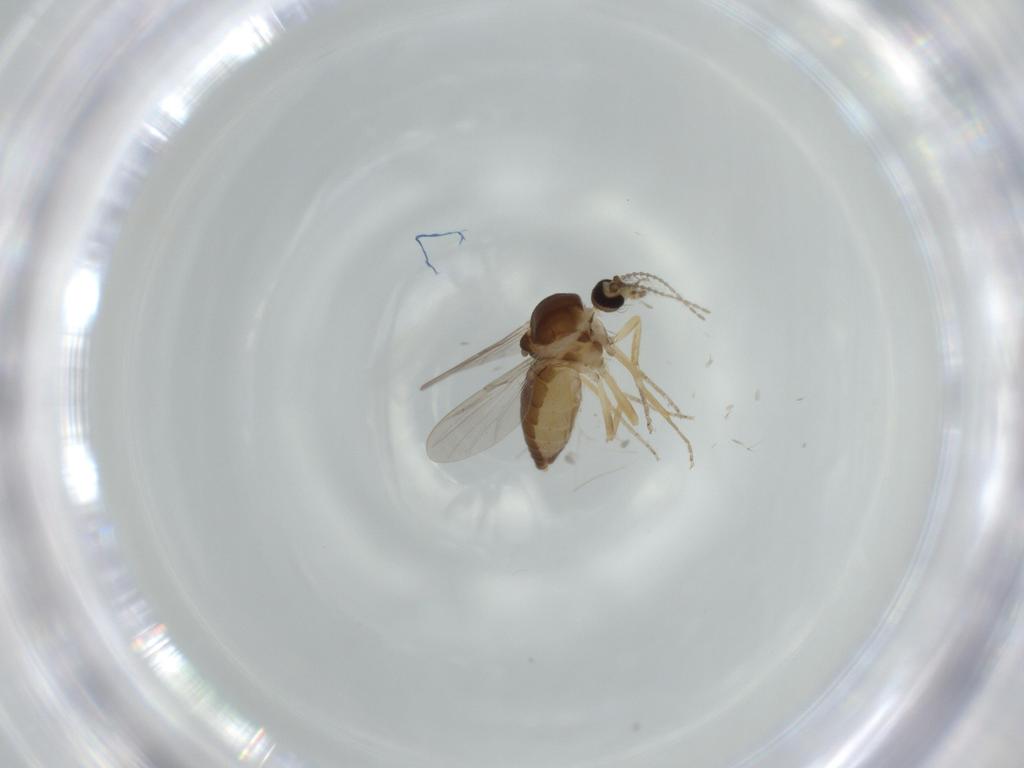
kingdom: Animalia
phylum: Arthropoda
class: Insecta
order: Diptera
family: Ceratopogonidae
